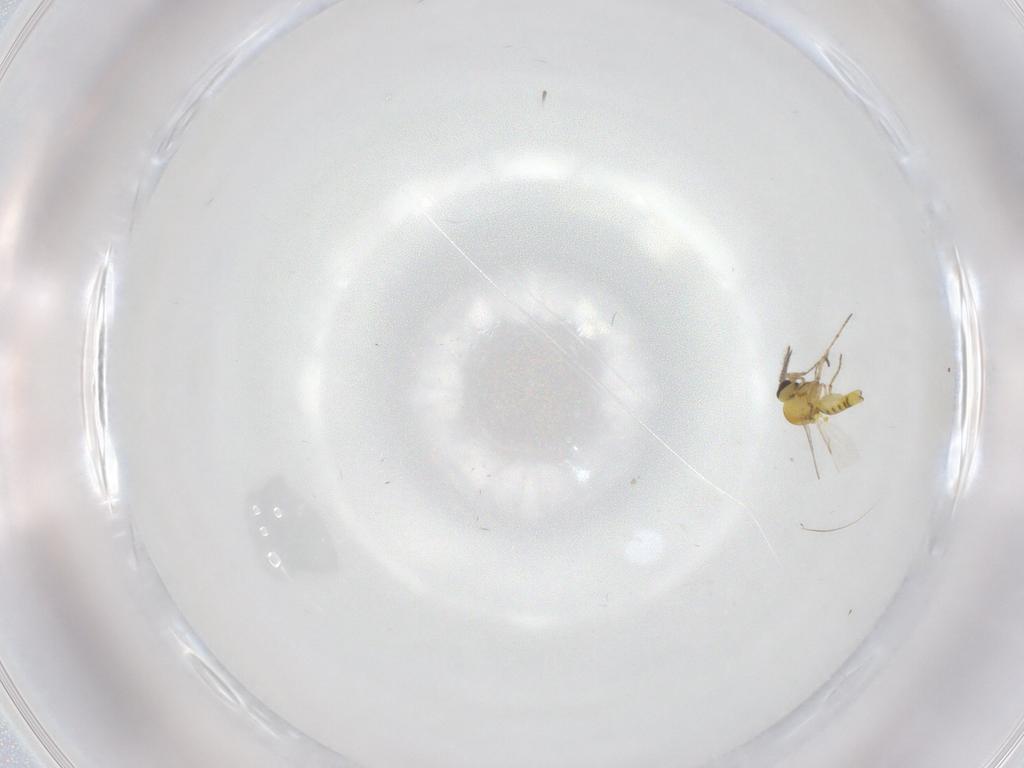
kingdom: Animalia
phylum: Arthropoda
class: Insecta
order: Diptera
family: Ceratopogonidae
